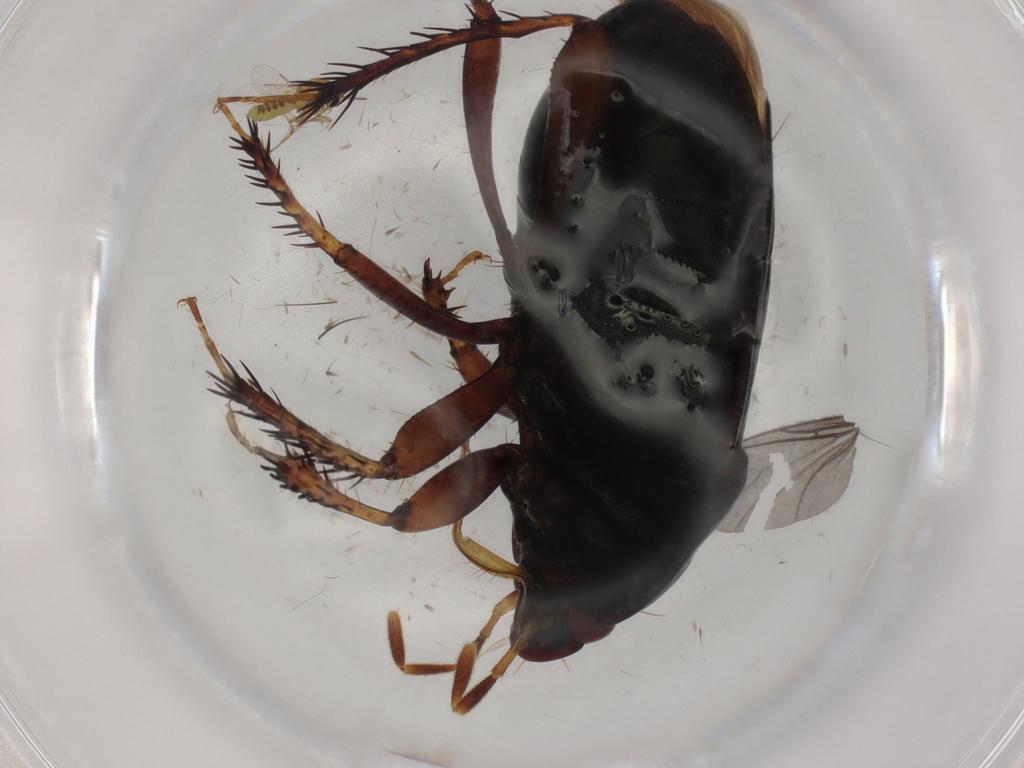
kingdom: Animalia
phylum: Arthropoda
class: Insecta
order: Hemiptera
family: Cydnidae
